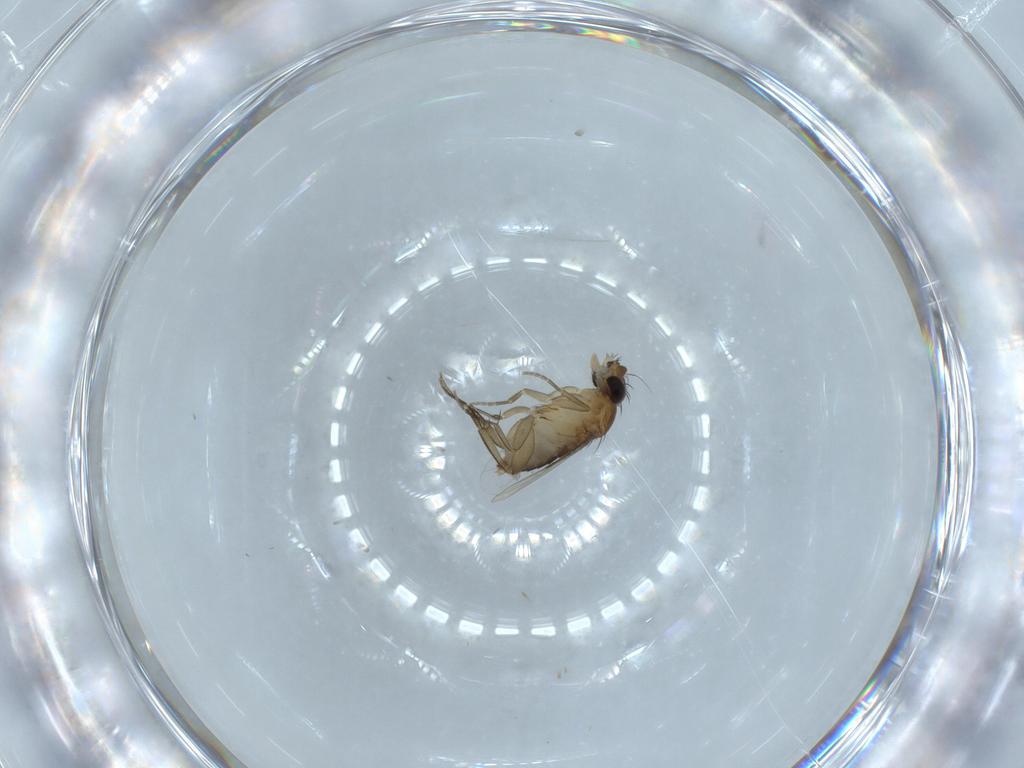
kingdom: Animalia
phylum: Arthropoda
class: Insecta
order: Diptera
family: Phoridae
